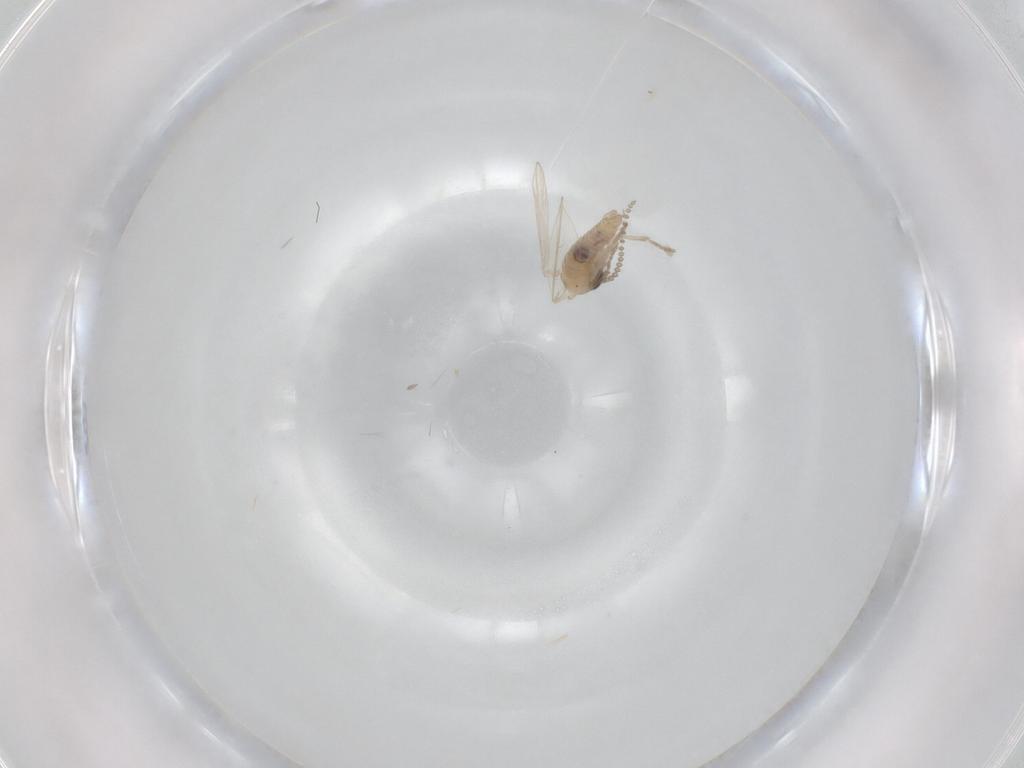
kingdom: Animalia
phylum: Arthropoda
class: Insecta
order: Diptera
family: Psychodidae
